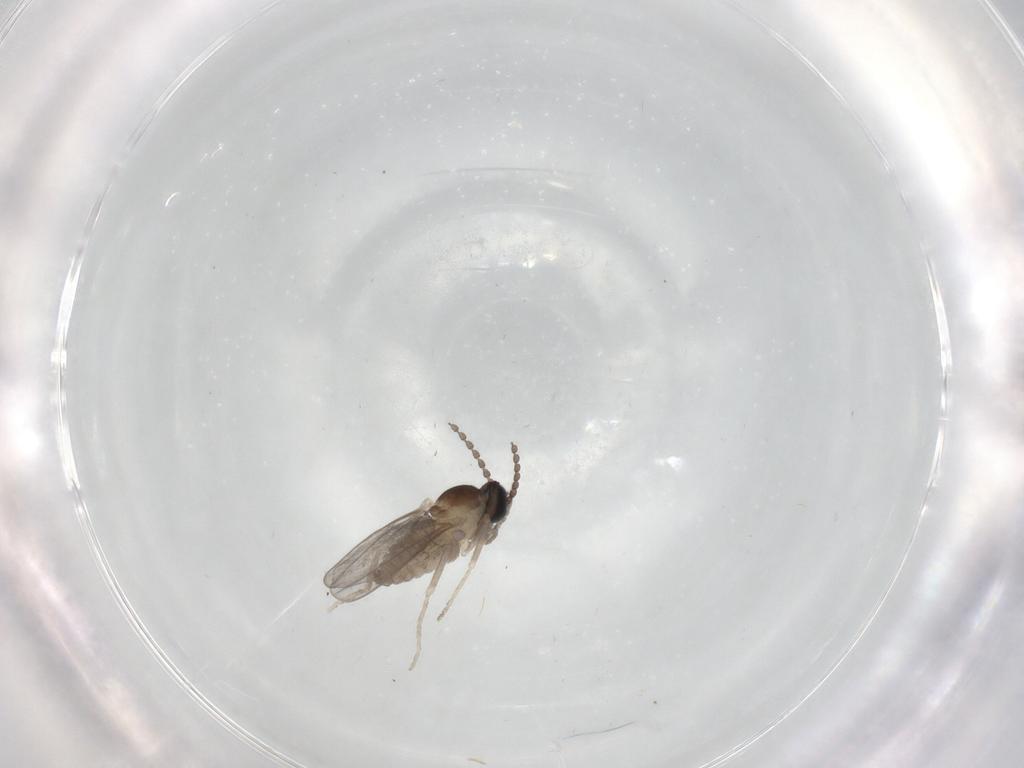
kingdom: Animalia
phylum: Arthropoda
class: Insecta
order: Diptera
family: Cecidomyiidae
